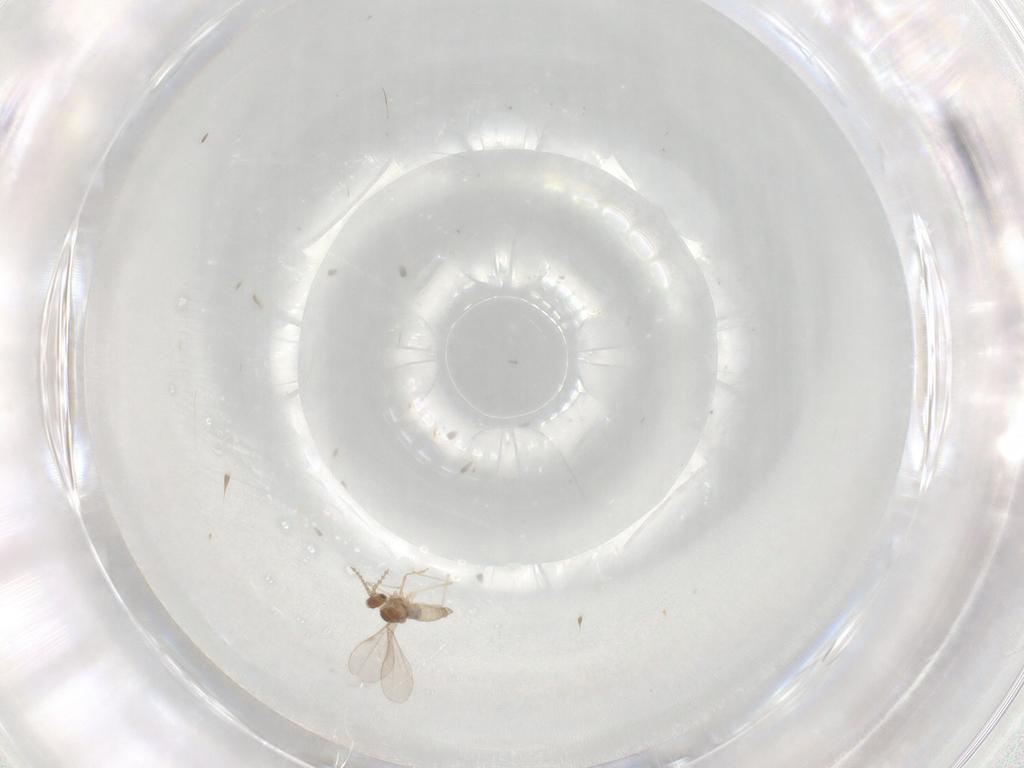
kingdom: Animalia
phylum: Arthropoda
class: Insecta
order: Diptera
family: Cecidomyiidae
